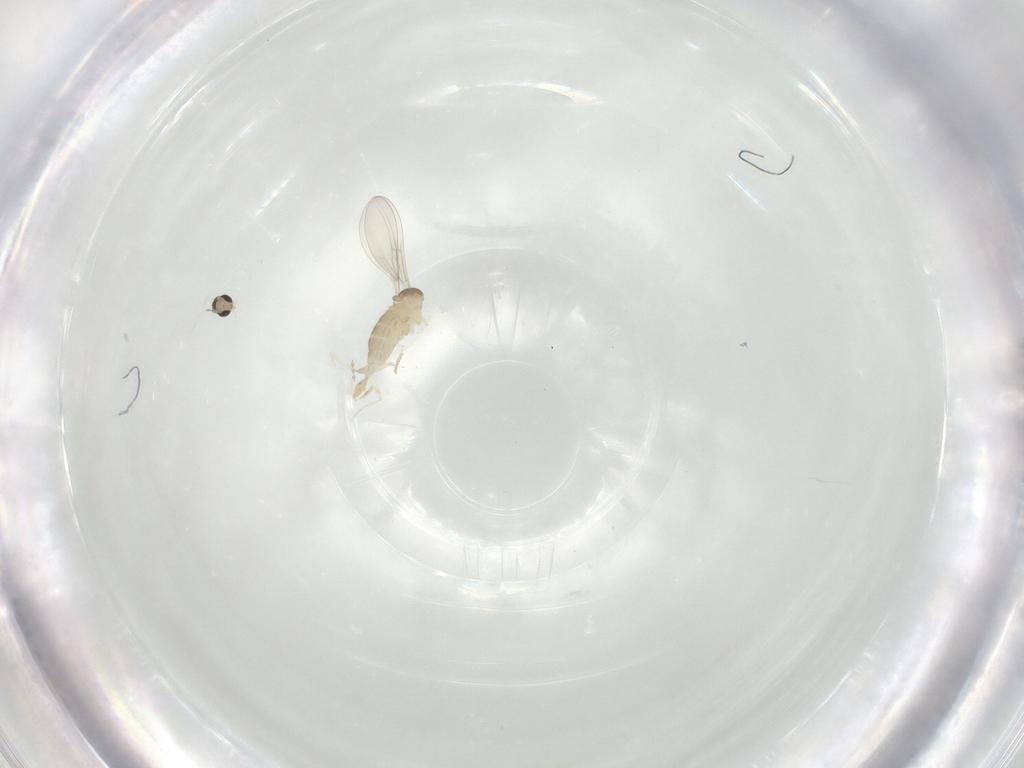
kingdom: Animalia
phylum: Arthropoda
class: Insecta
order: Diptera
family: Cecidomyiidae
